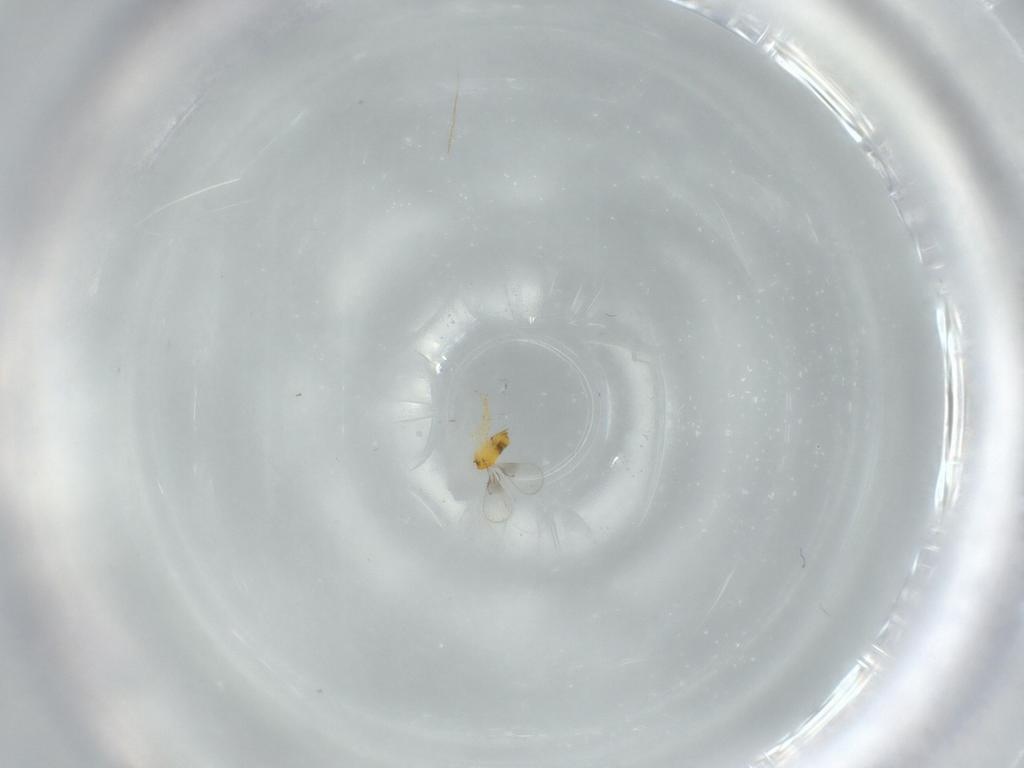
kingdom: Animalia
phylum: Arthropoda
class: Insecta
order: Hymenoptera
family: Trichogrammatidae
